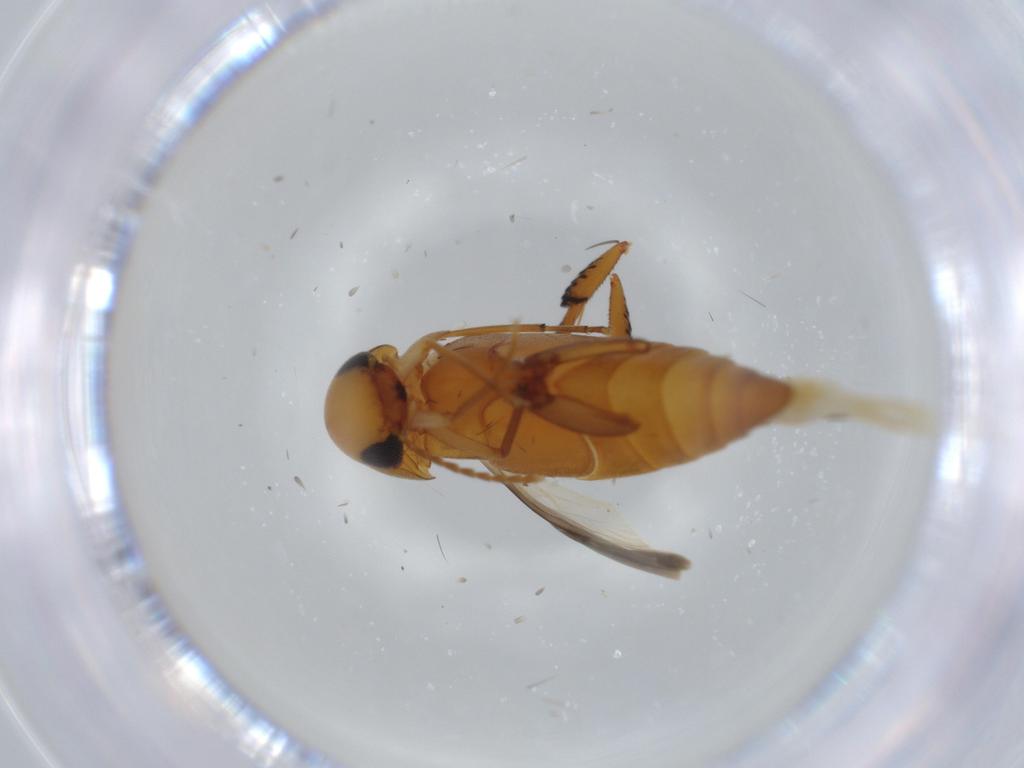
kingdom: Animalia
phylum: Arthropoda
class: Insecta
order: Coleoptera
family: Mordellidae
